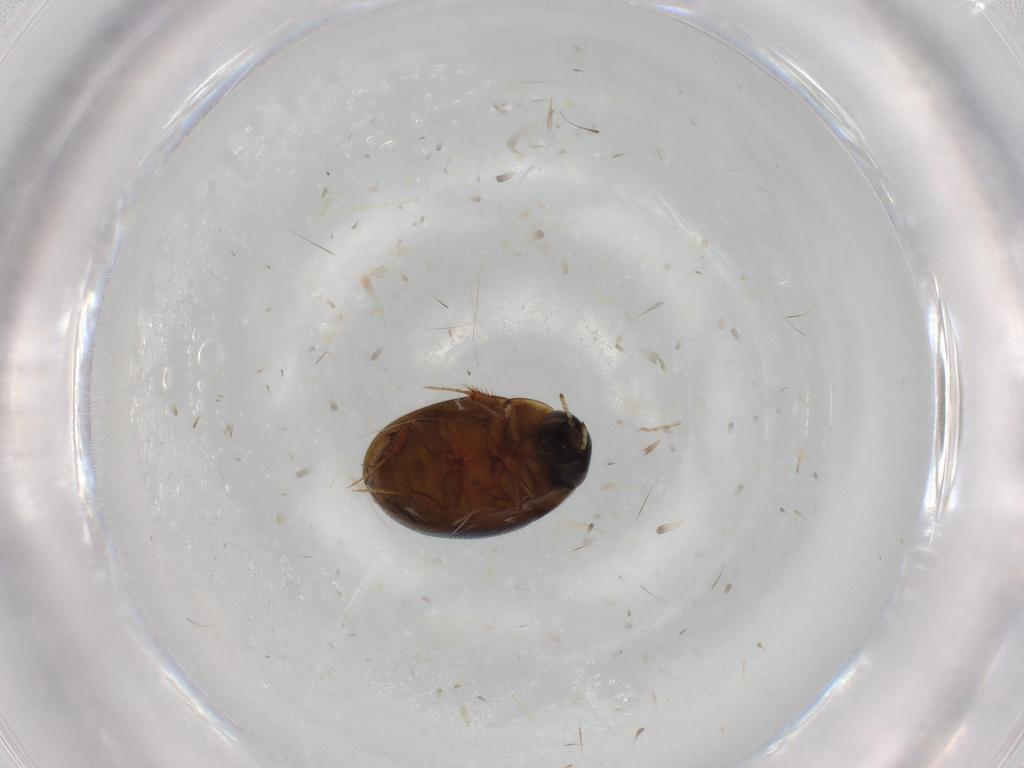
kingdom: Animalia
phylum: Arthropoda
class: Insecta
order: Coleoptera
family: Hydrophilidae
